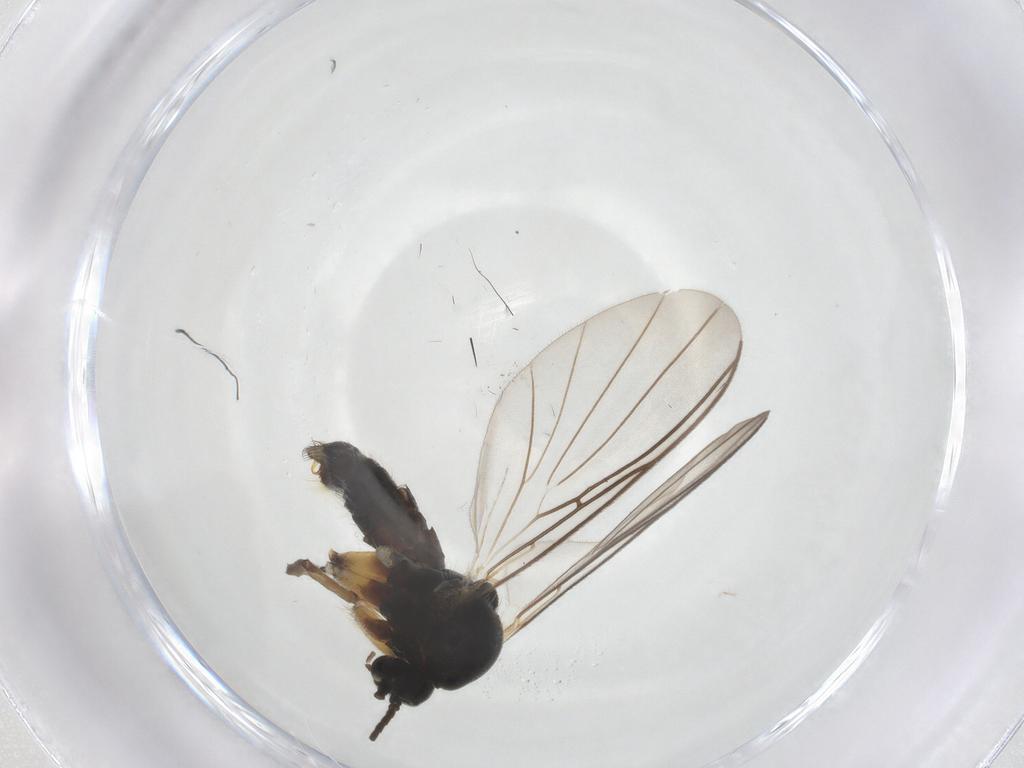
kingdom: Animalia
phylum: Arthropoda
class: Insecta
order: Diptera
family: Mycetophilidae
